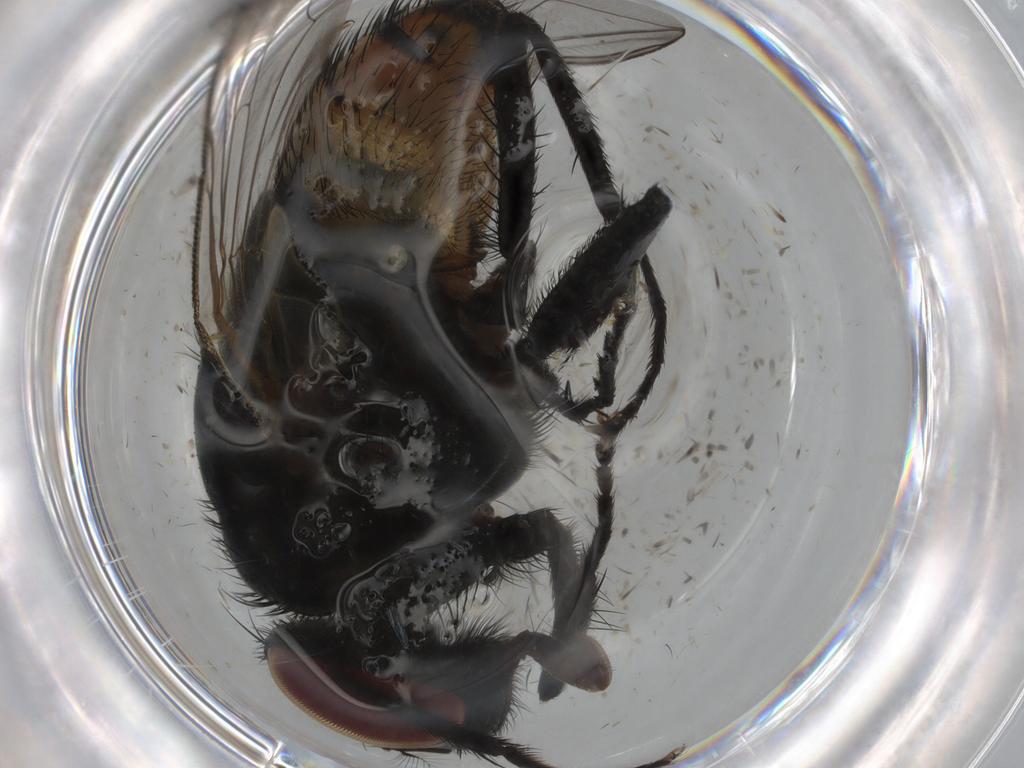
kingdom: Animalia
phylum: Arthropoda
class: Insecta
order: Diptera
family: Muscidae
